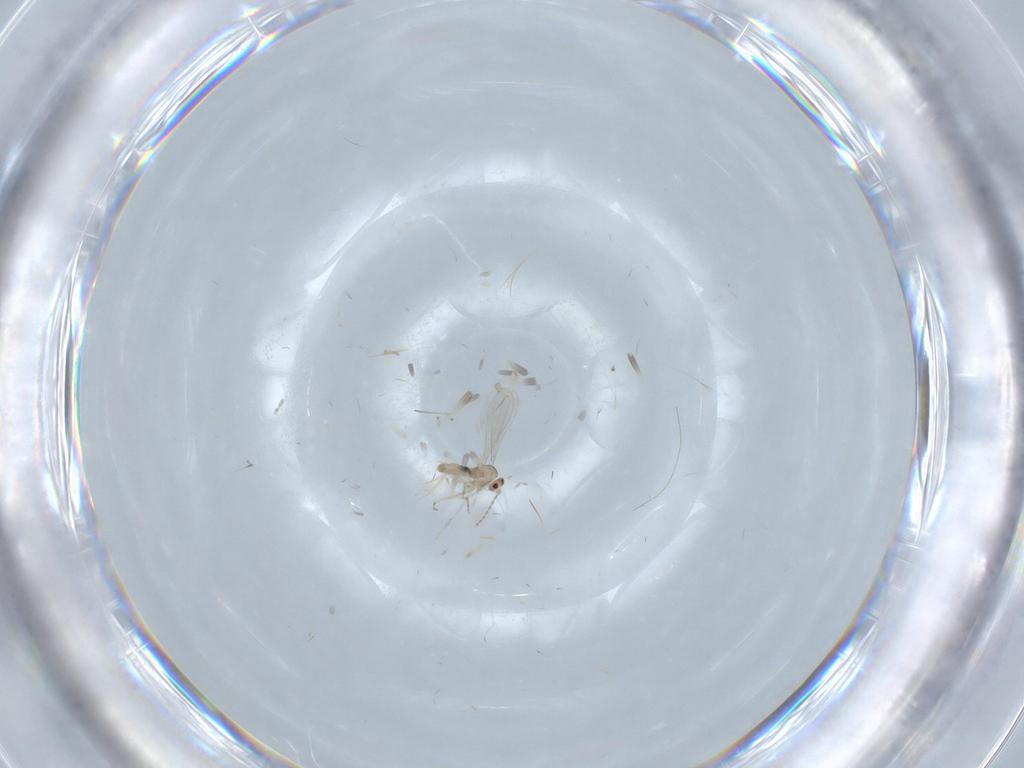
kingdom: Animalia
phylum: Arthropoda
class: Insecta
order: Diptera
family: Cecidomyiidae
